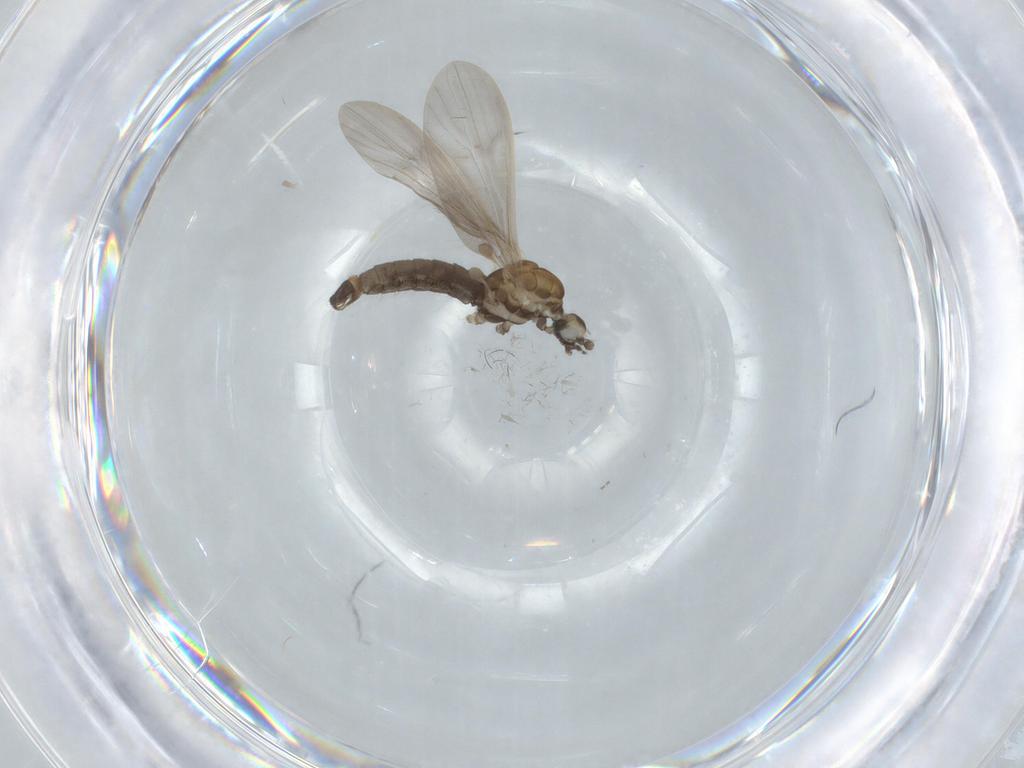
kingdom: Animalia
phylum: Arthropoda
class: Insecta
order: Diptera
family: Limoniidae
